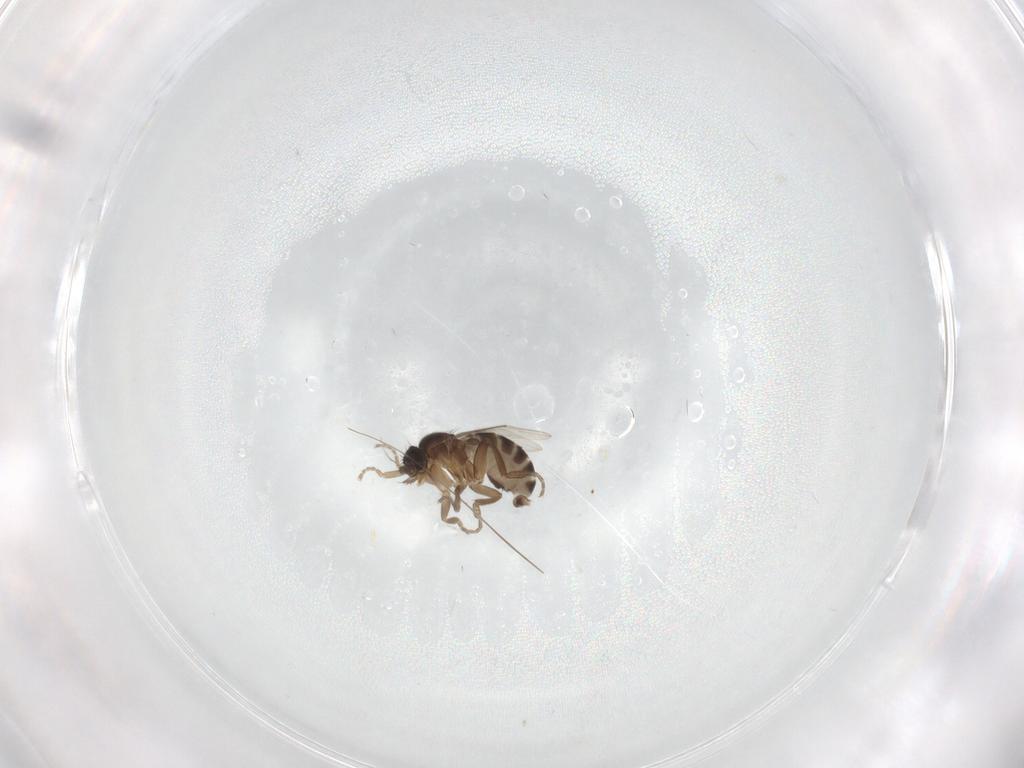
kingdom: Animalia
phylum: Arthropoda
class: Insecta
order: Diptera
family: Phoridae
